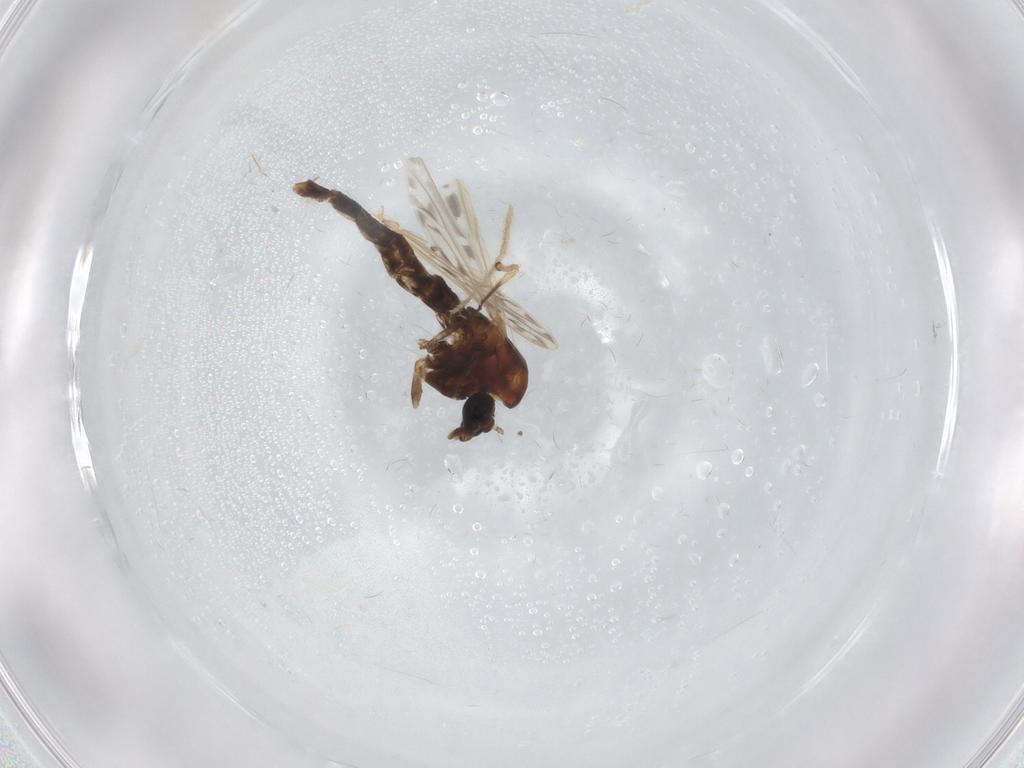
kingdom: Animalia
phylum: Arthropoda
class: Insecta
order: Diptera
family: Chironomidae
